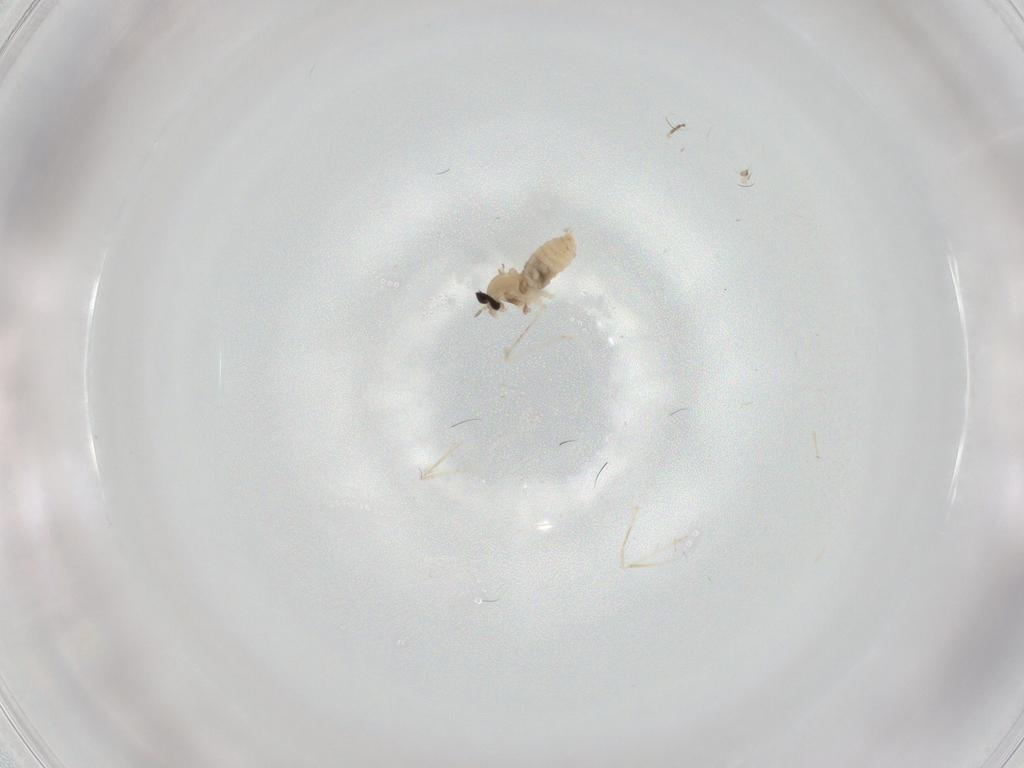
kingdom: Animalia
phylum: Arthropoda
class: Insecta
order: Diptera
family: Cecidomyiidae
